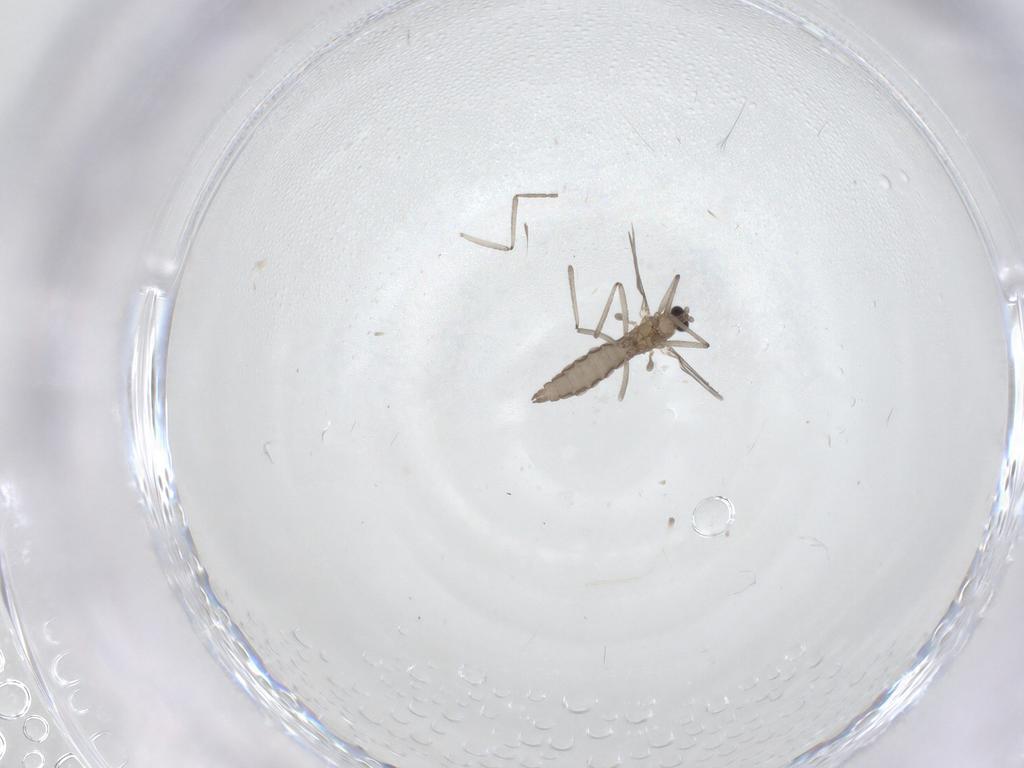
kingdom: Animalia
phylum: Arthropoda
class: Insecta
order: Diptera
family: Cecidomyiidae
